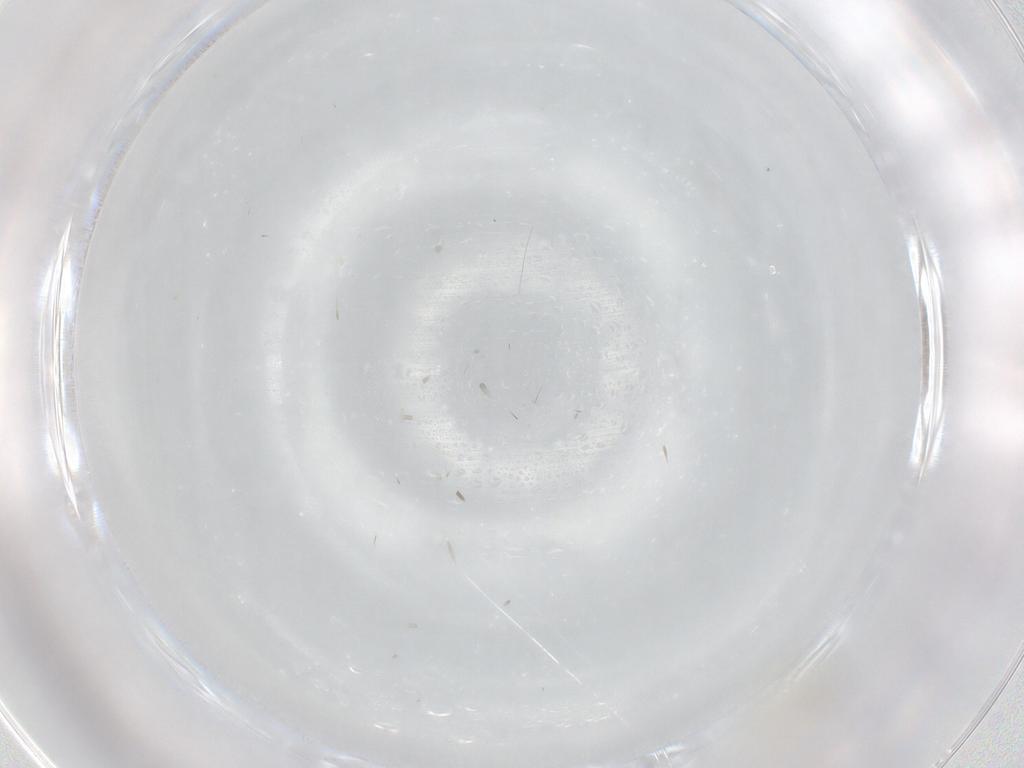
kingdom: Animalia
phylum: Arthropoda
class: Insecta
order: Diptera
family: Cecidomyiidae
